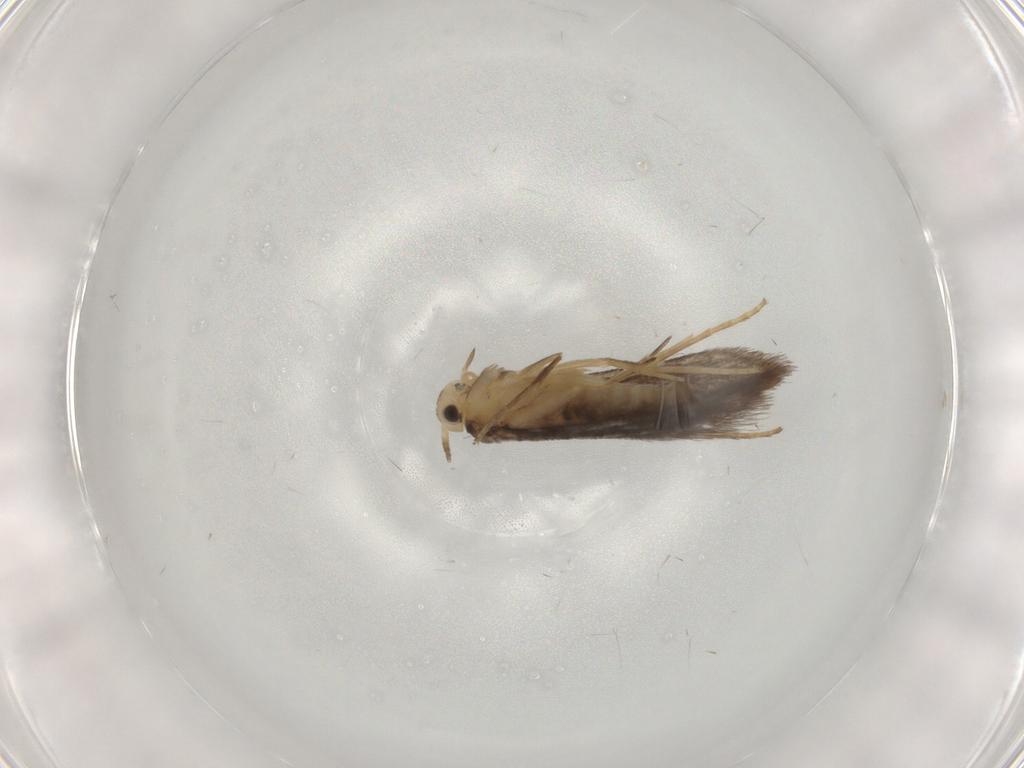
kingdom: Animalia
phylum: Arthropoda
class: Insecta
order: Lepidoptera
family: Schreckensteiniidae
